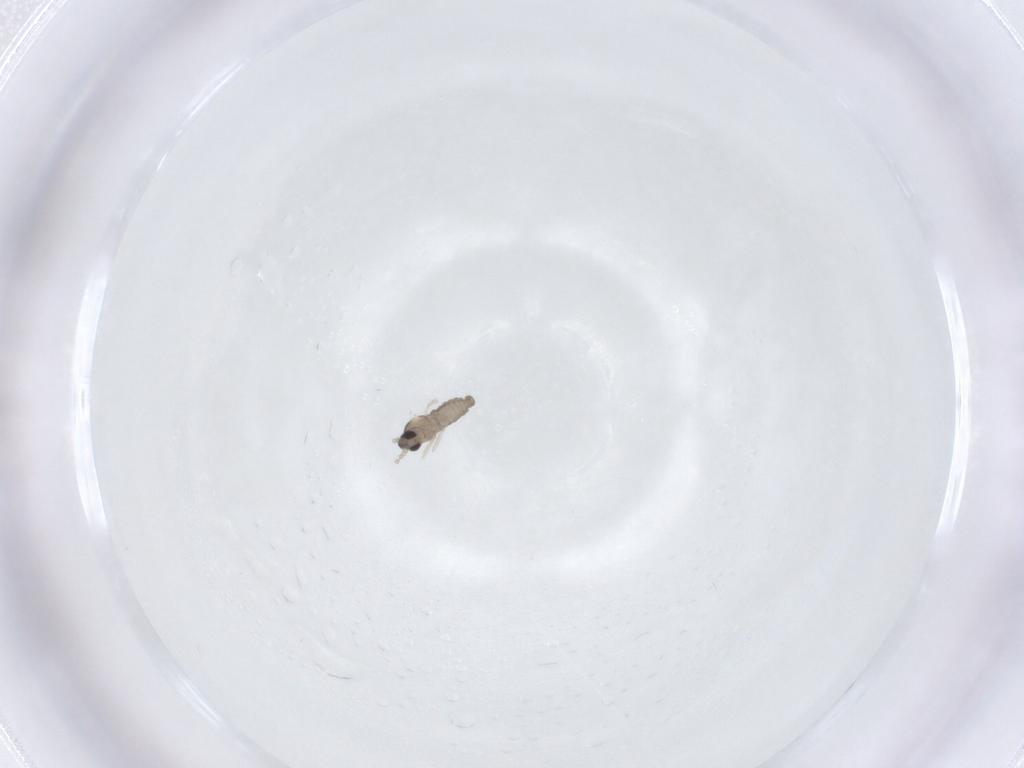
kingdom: Animalia
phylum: Arthropoda
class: Insecta
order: Diptera
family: Cecidomyiidae
